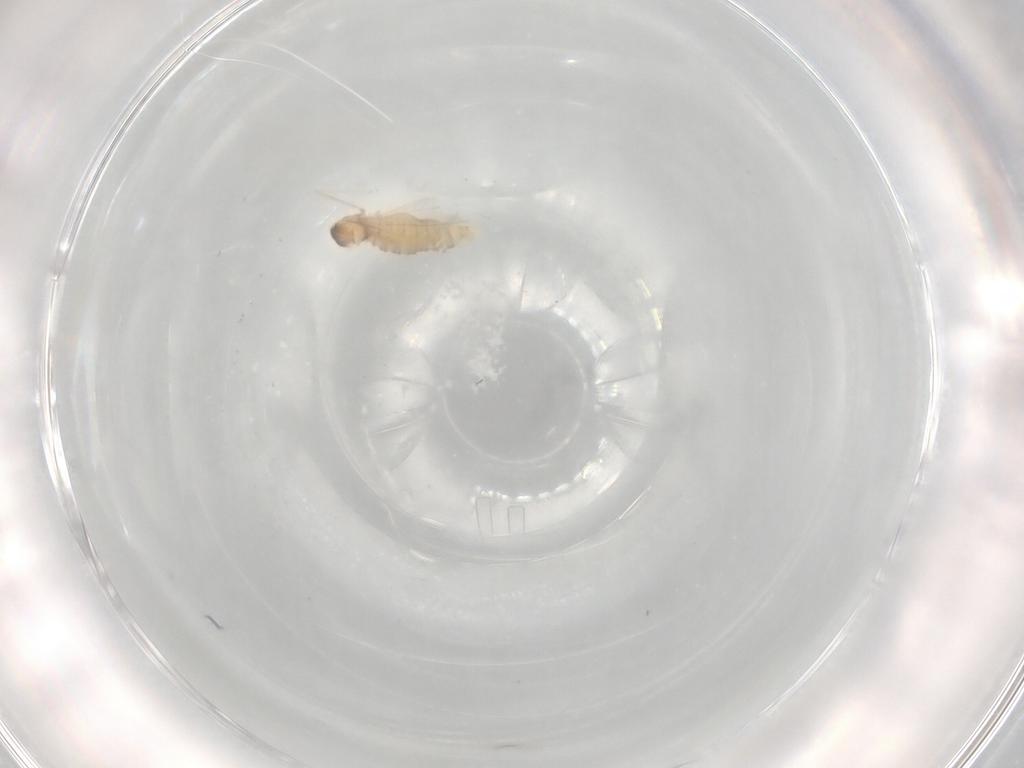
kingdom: Animalia
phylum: Arthropoda
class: Insecta
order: Diptera
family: Cecidomyiidae
